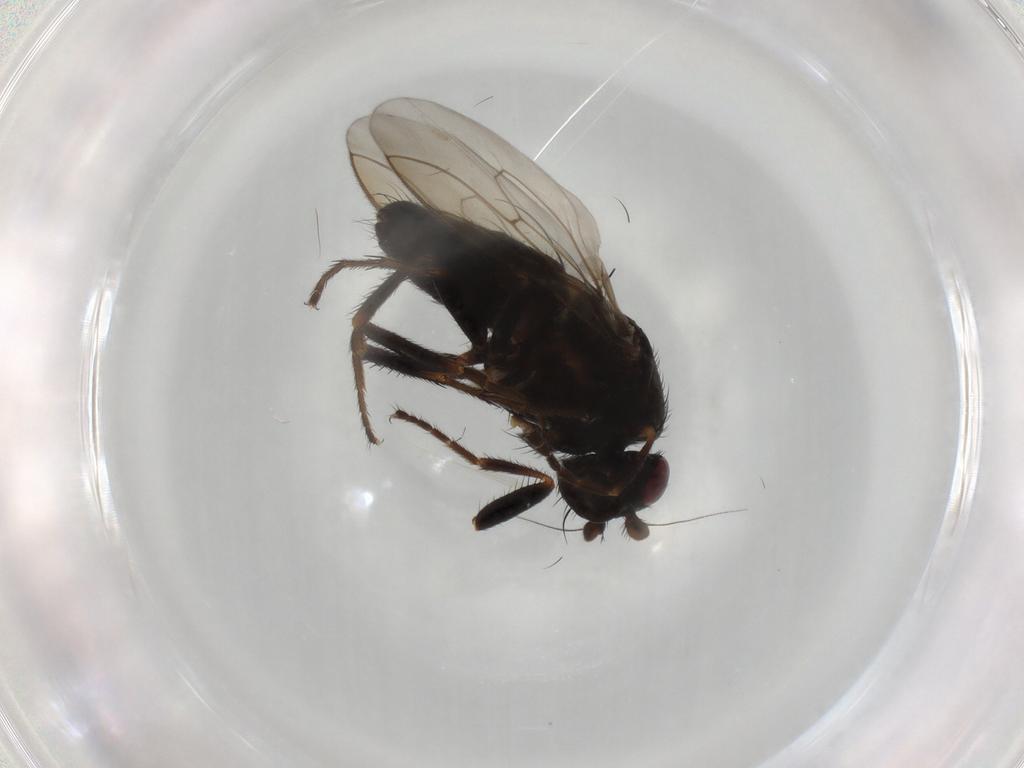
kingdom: Animalia
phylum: Arthropoda
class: Insecta
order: Diptera
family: Sphaeroceridae
